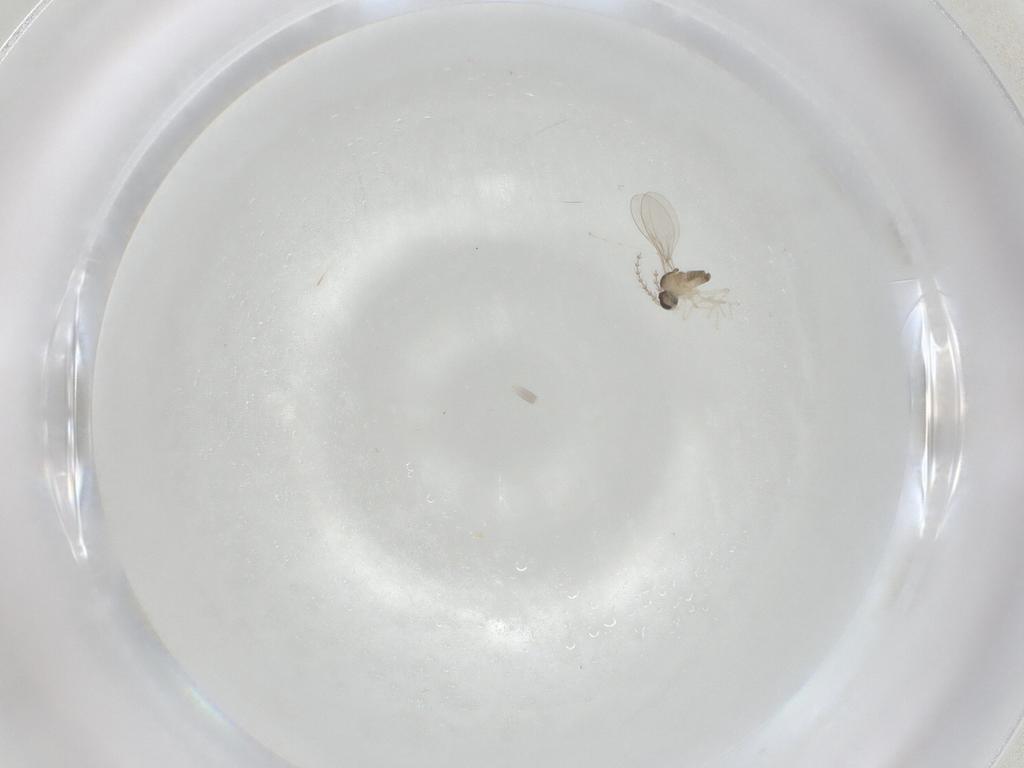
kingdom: Animalia
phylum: Arthropoda
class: Insecta
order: Diptera
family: Cecidomyiidae
